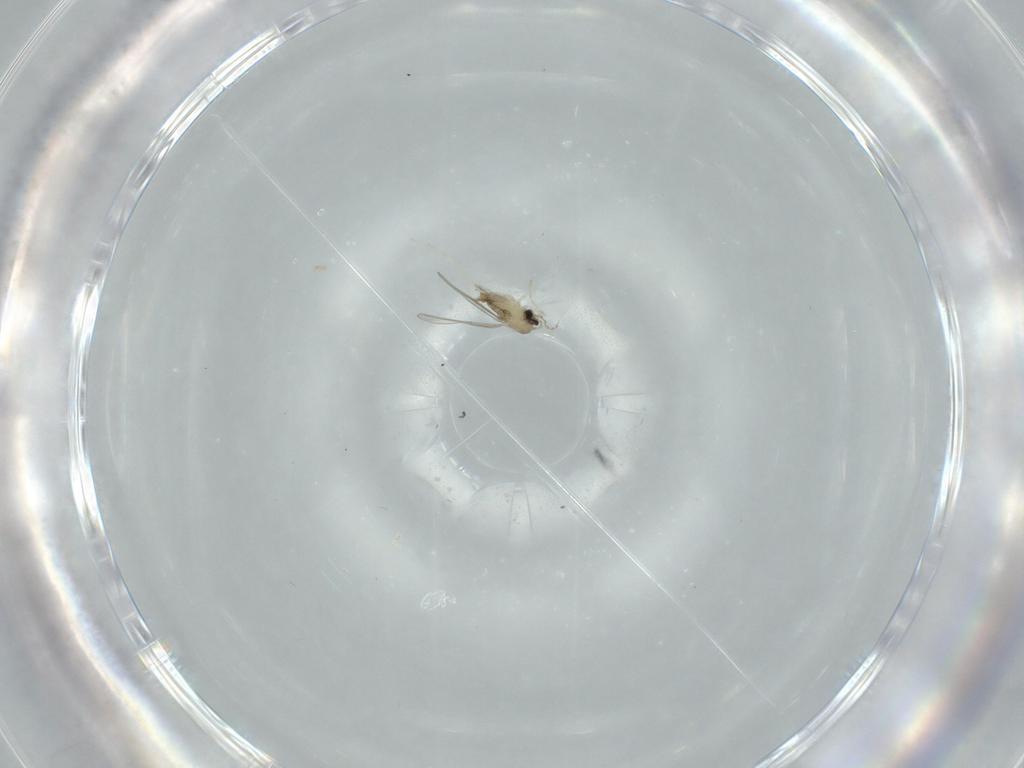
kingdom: Animalia
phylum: Arthropoda
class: Insecta
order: Diptera
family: Cecidomyiidae
